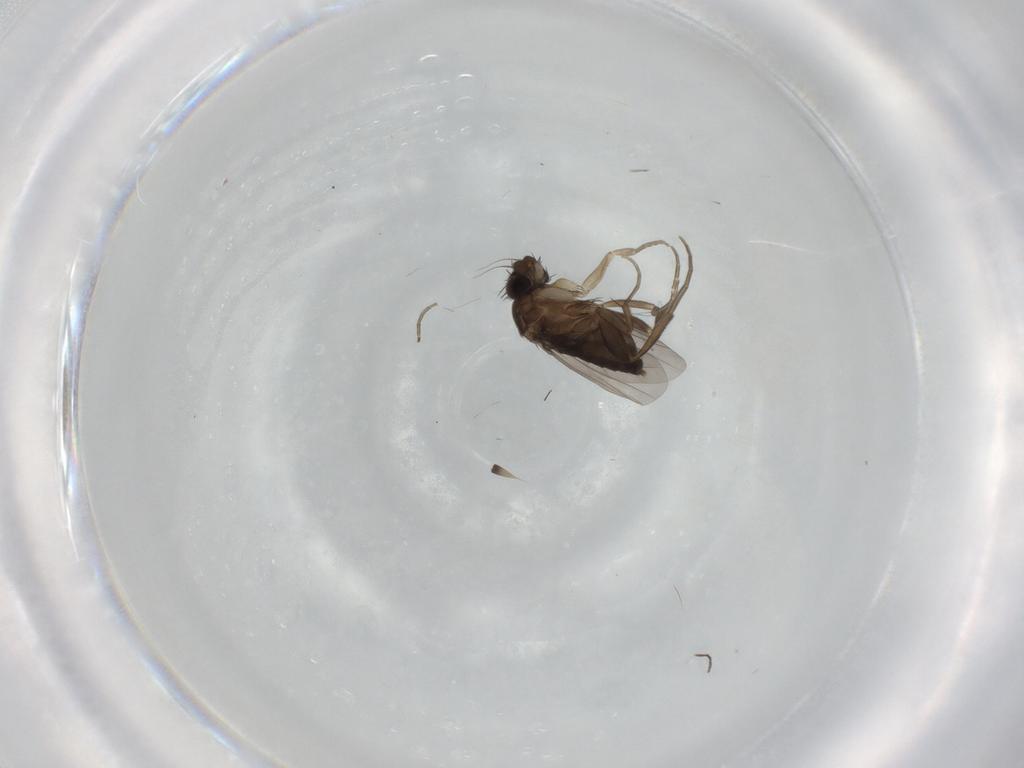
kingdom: Animalia
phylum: Arthropoda
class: Insecta
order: Diptera
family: Phoridae
